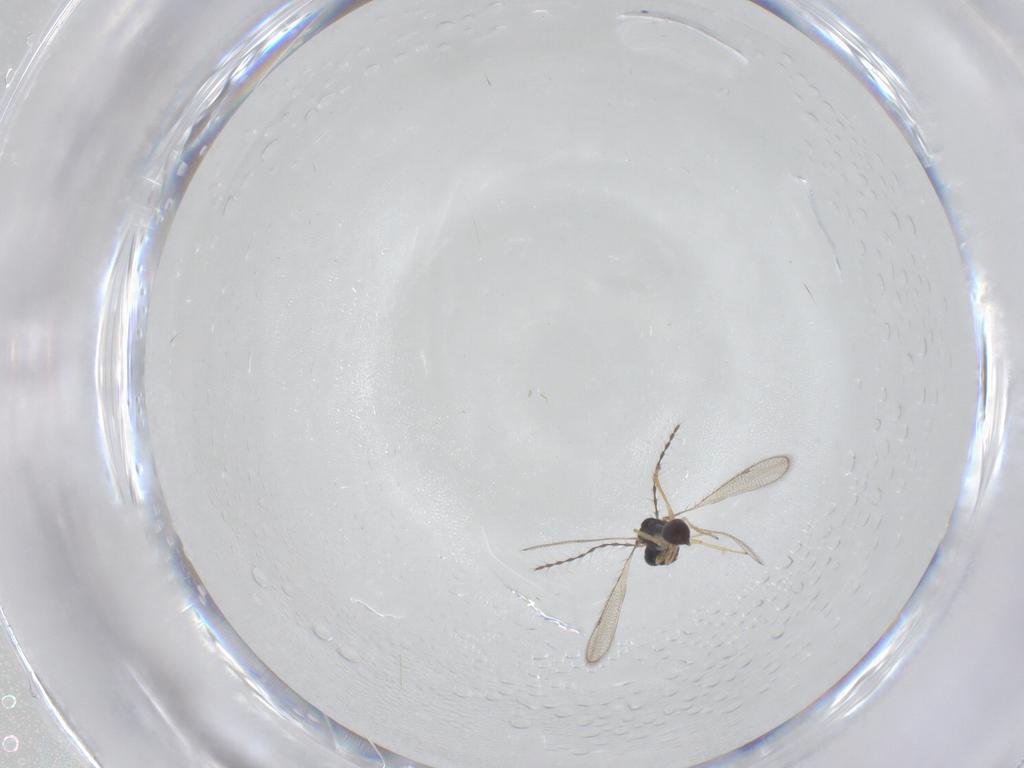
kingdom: Animalia
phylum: Arthropoda
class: Insecta
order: Hymenoptera
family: Diparidae
